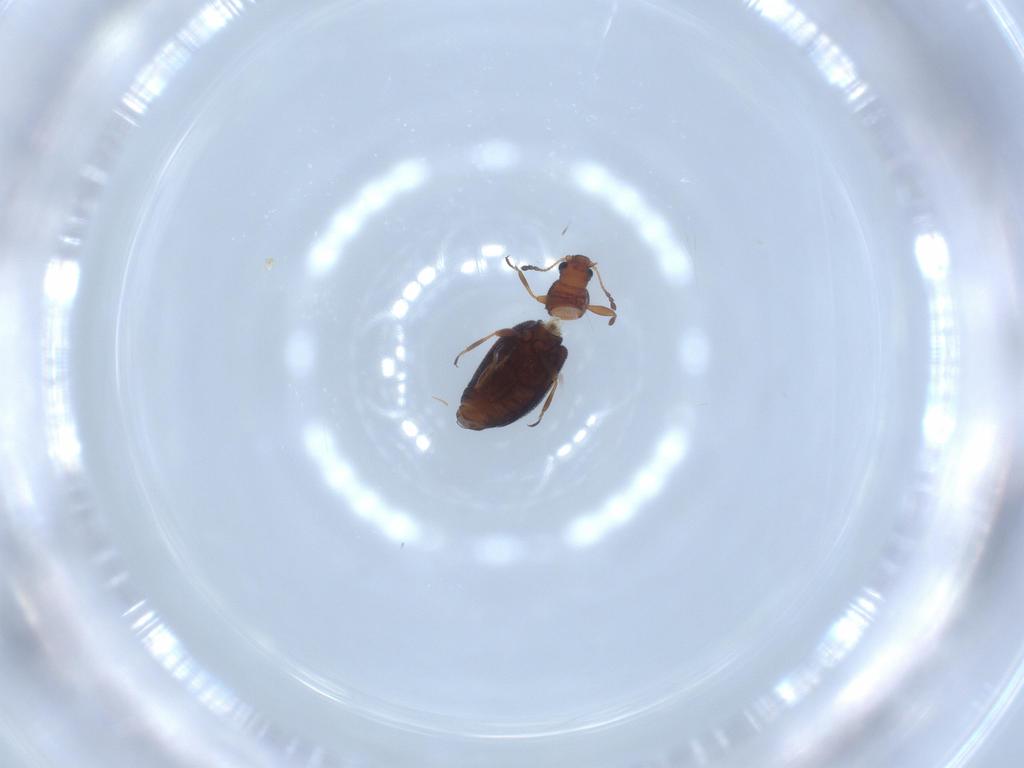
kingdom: Animalia
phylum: Arthropoda
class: Insecta
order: Coleoptera
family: Latridiidae
